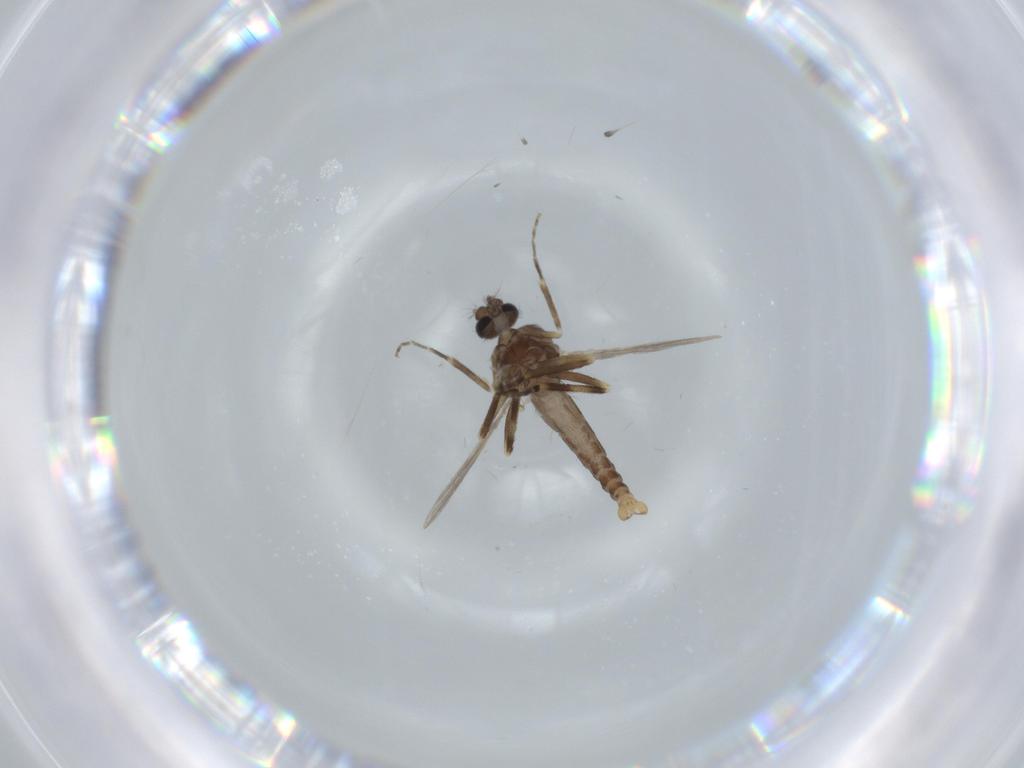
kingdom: Animalia
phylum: Arthropoda
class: Insecta
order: Diptera
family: Ceratopogonidae
